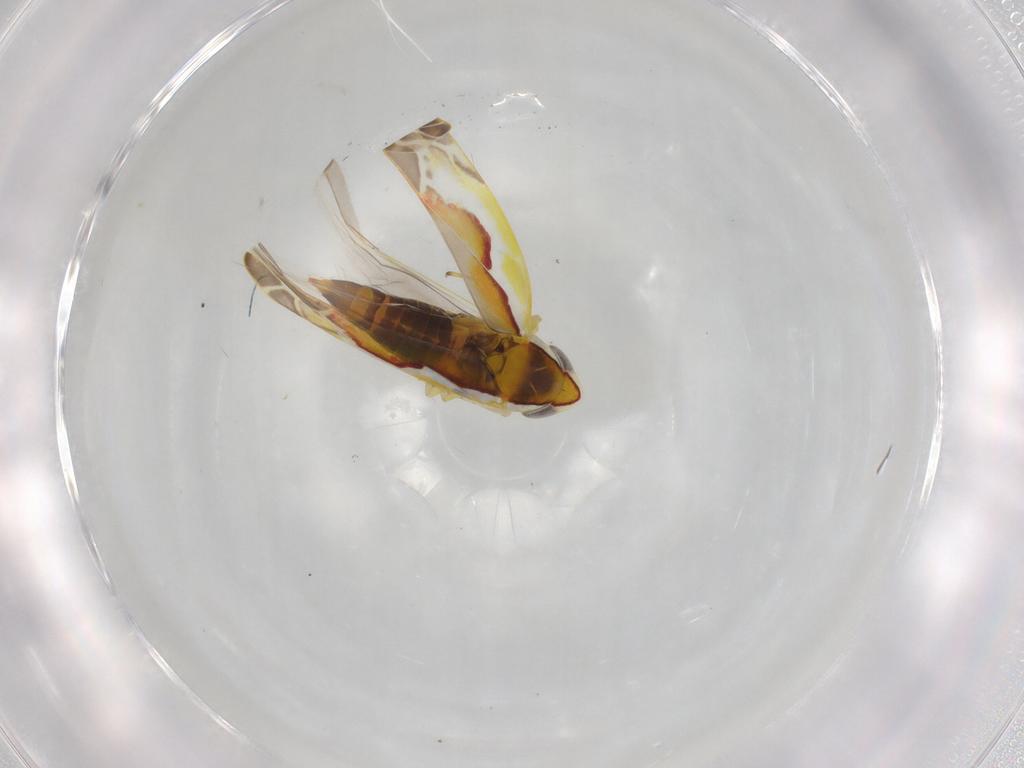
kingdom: Animalia
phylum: Arthropoda
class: Insecta
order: Hemiptera
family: Cicadellidae
